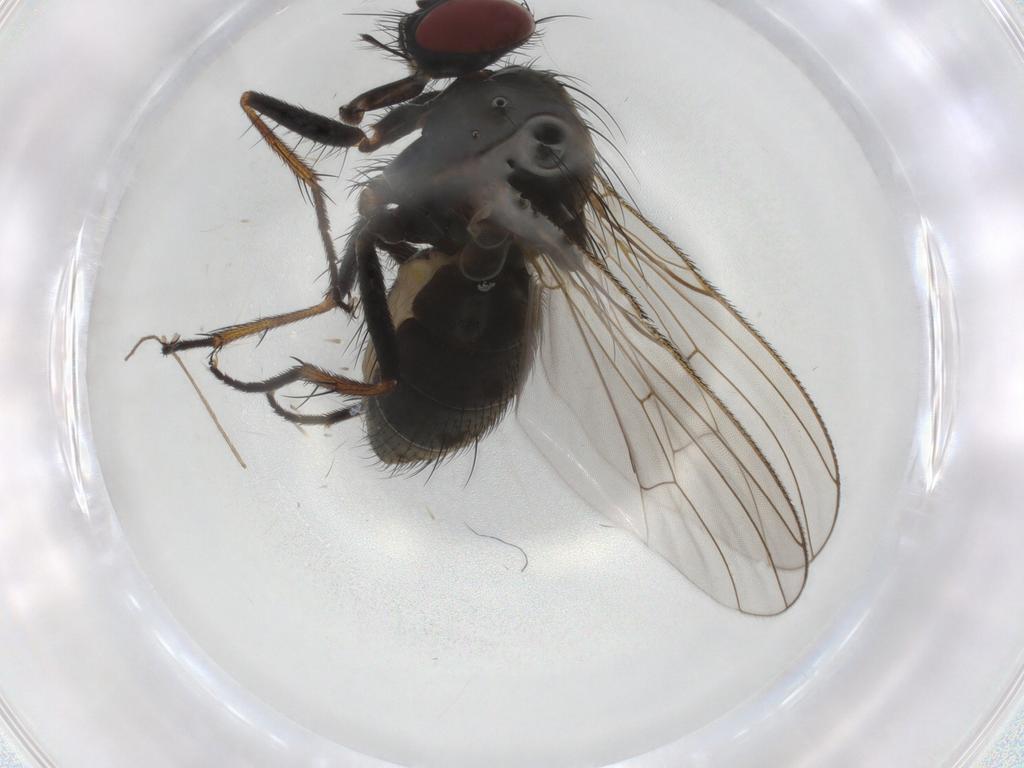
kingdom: Animalia
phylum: Arthropoda
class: Insecta
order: Diptera
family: Muscidae
